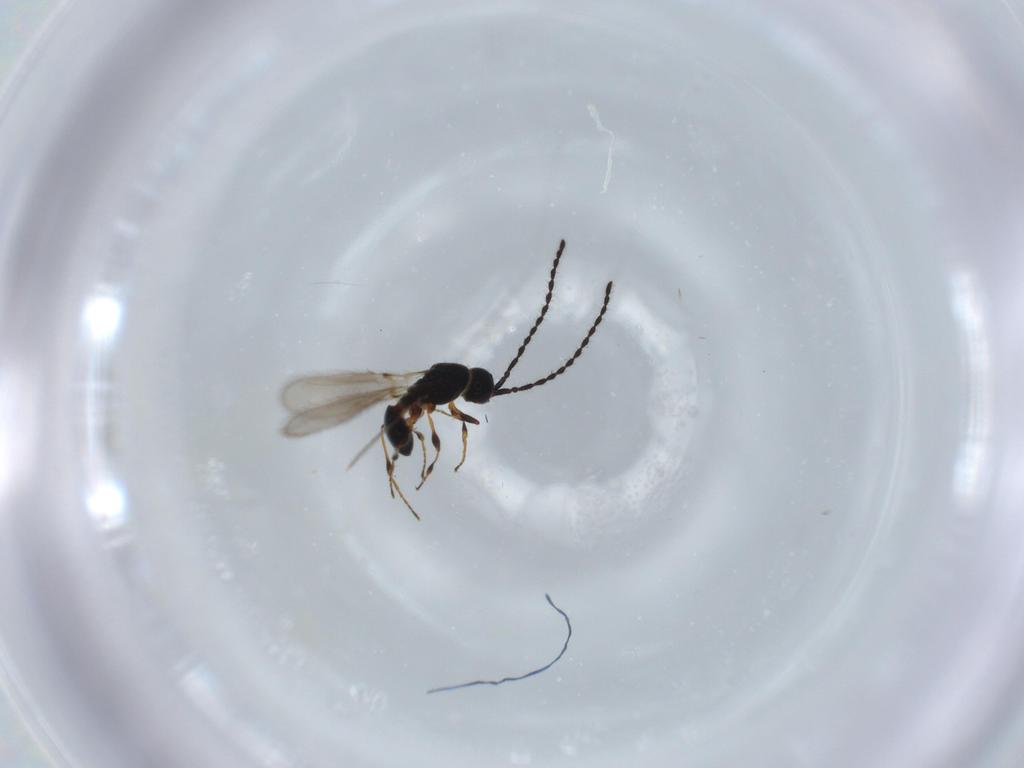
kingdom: Animalia
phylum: Arthropoda
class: Insecta
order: Hymenoptera
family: Diapriidae
